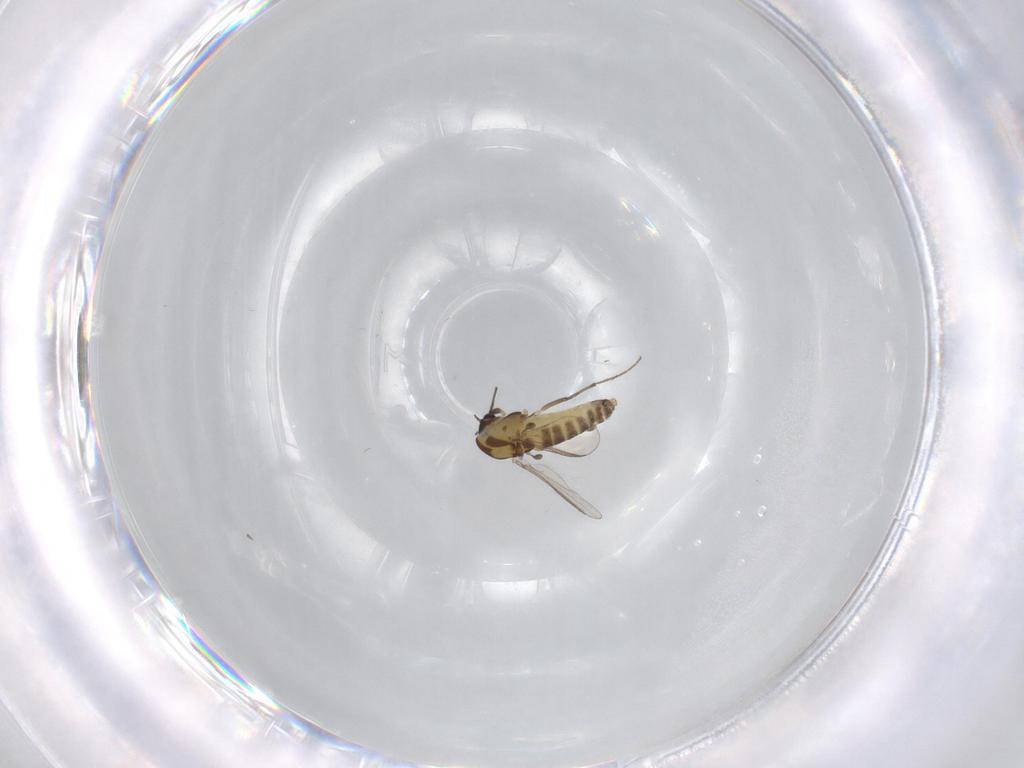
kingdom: Animalia
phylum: Arthropoda
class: Insecta
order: Diptera
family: Chironomidae
